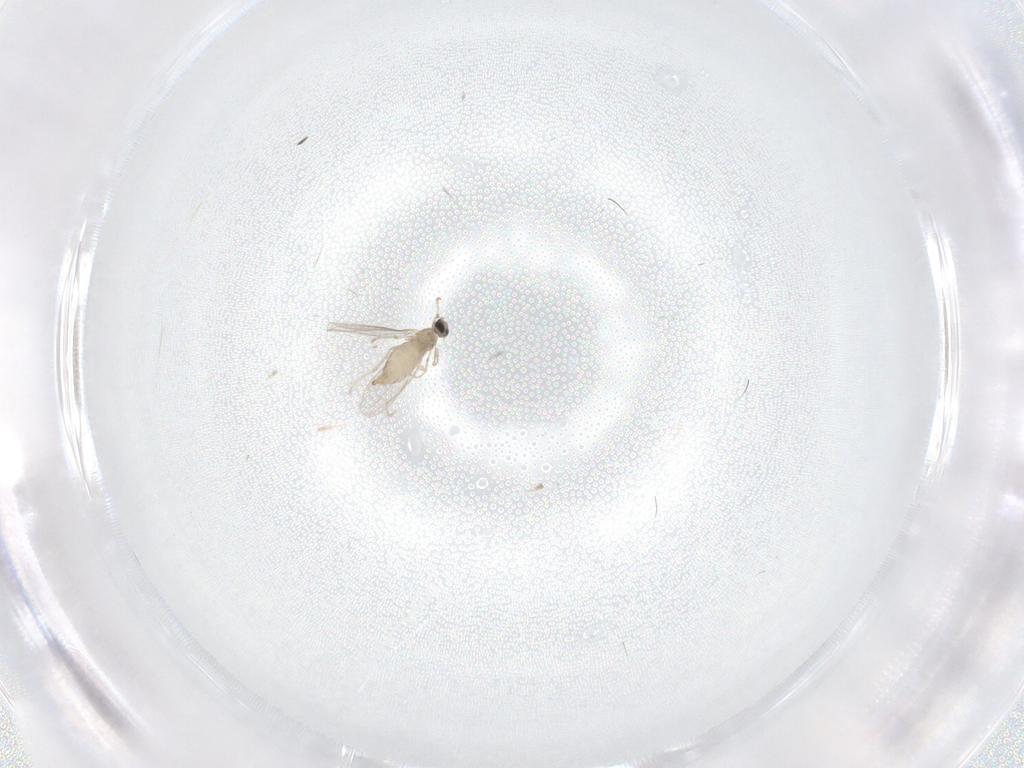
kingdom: Animalia
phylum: Arthropoda
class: Insecta
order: Diptera
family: Cecidomyiidae
